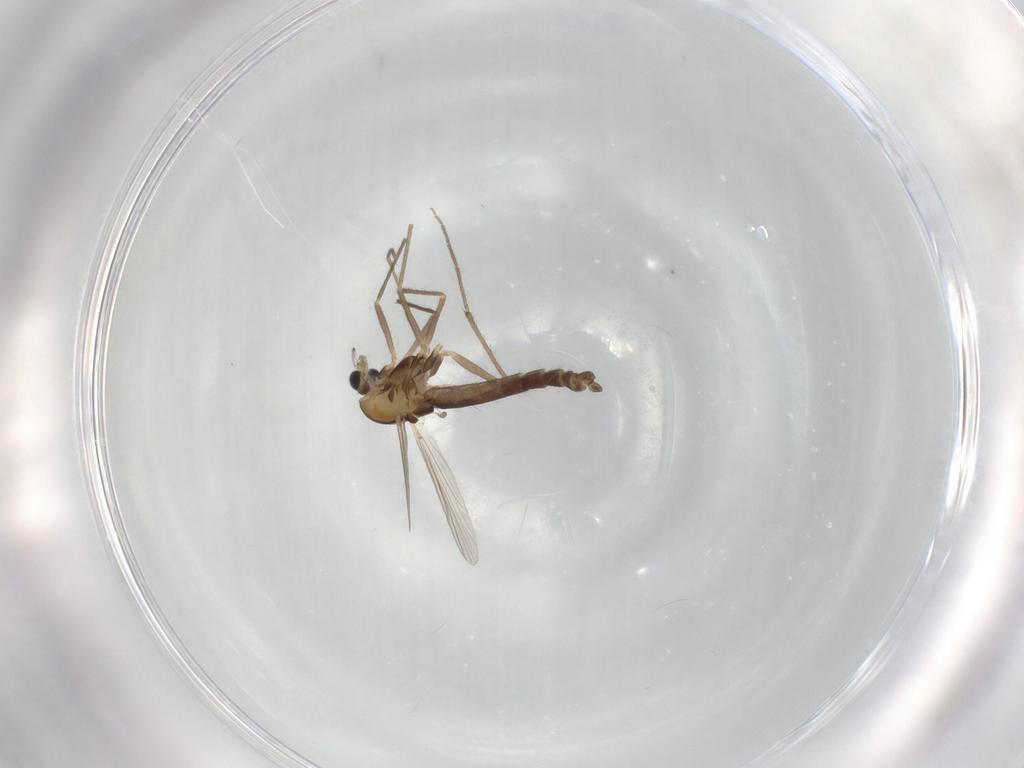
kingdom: Animalia
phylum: Arthropoda
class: Insecta
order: Diptera
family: Chironomidae
